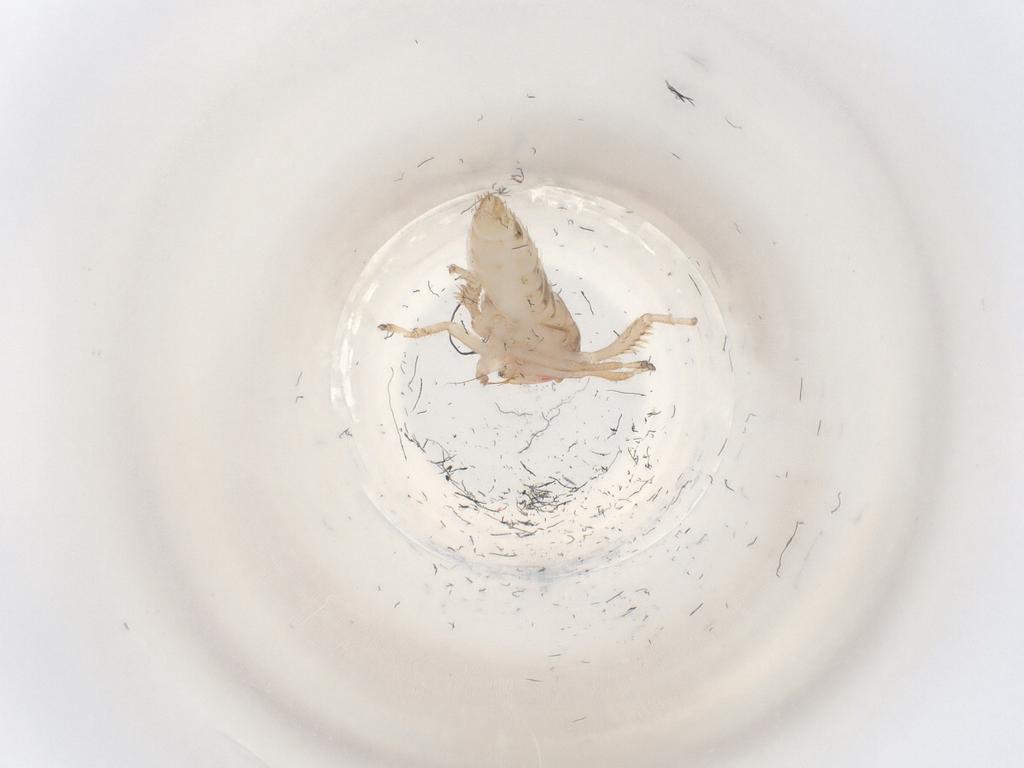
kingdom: Animalia
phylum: Arthropoda
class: Insecta
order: Hemiptera
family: Cicadellidae
